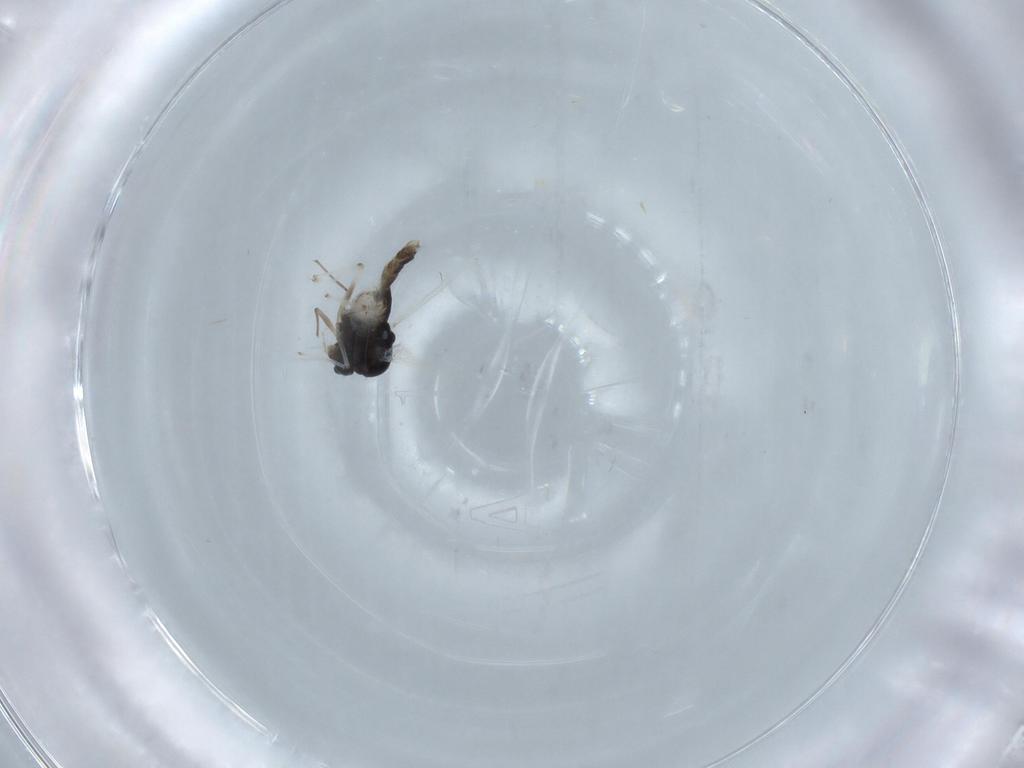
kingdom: Animalia
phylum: Arthropoda
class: Insecta
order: Diptera
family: Chironomidae
